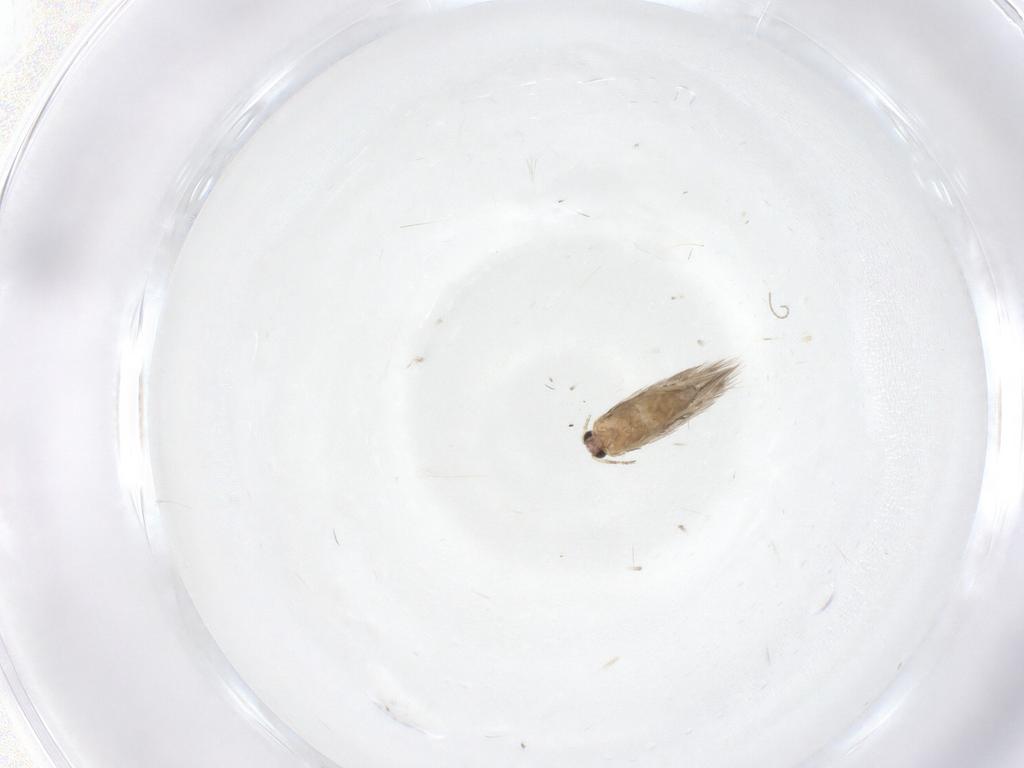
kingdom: Animalia
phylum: Arthropoda
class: Insecta
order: Lepidoptera
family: Nepticulidae
